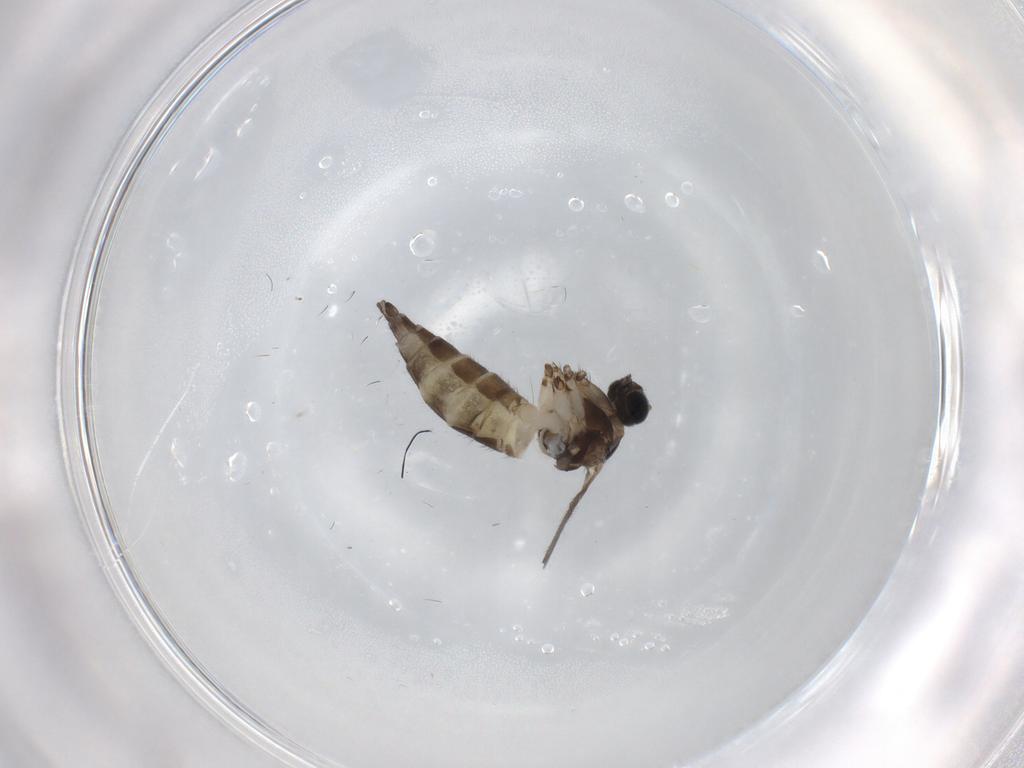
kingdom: Animalia
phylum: Arthropoda
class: Insecta
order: Diptera
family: Sciaridae
